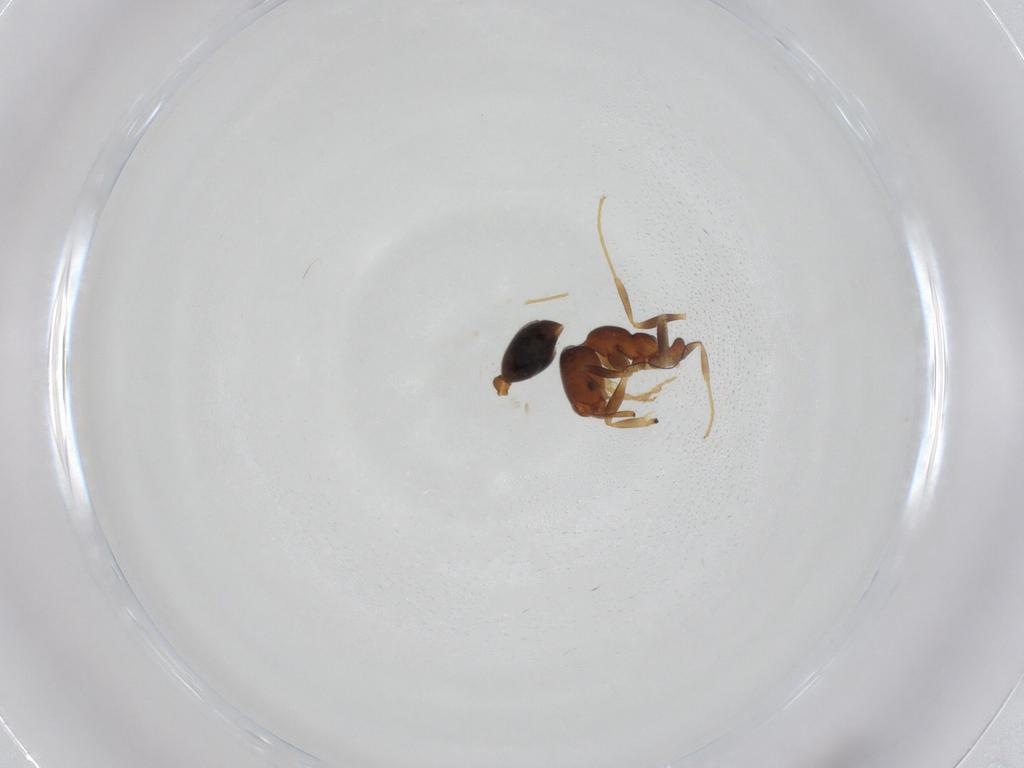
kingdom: Animalia
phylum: Arthropoda
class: Insecta
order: Hymenoptera
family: Formicidae
